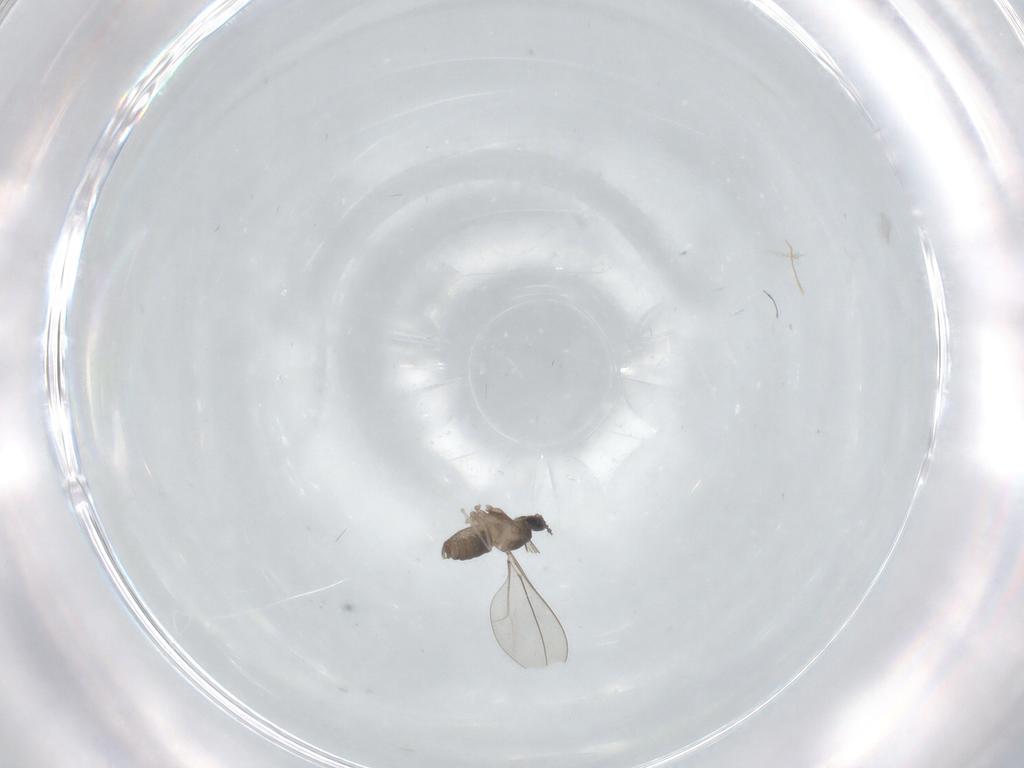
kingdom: Animalia
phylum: Arthropoda
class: Insecta
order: Diptera
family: Cecidomyiidae
